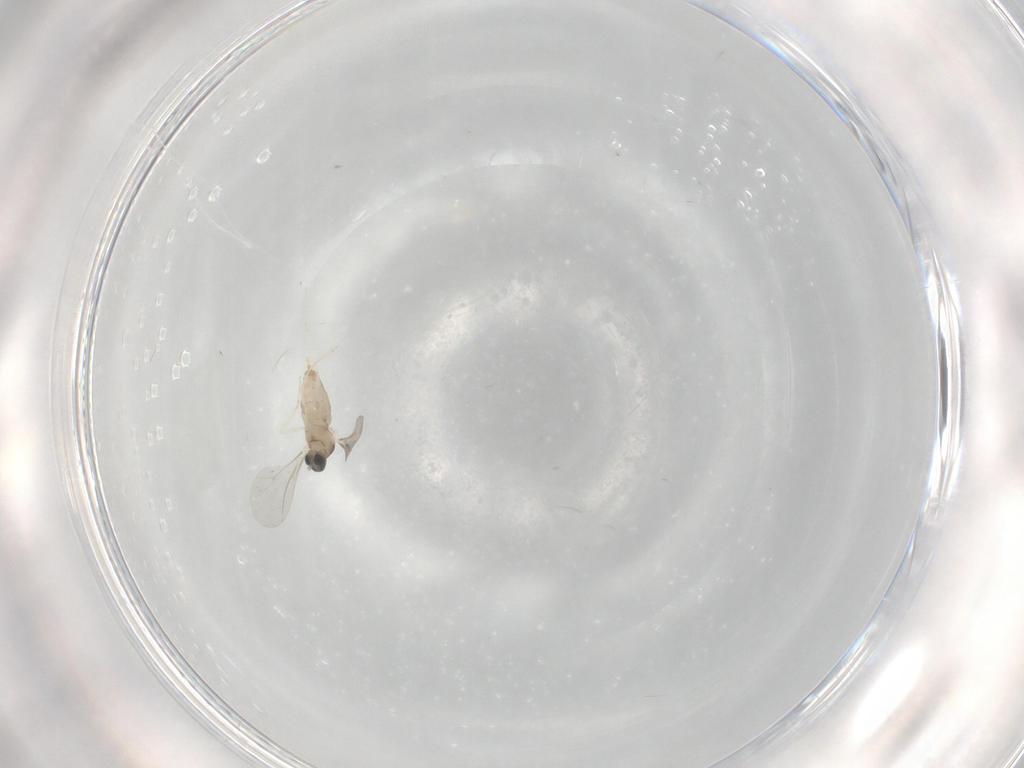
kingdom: Animalia
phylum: Arthropoda
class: Insecta
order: Diptera
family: Cecidomyiidae
